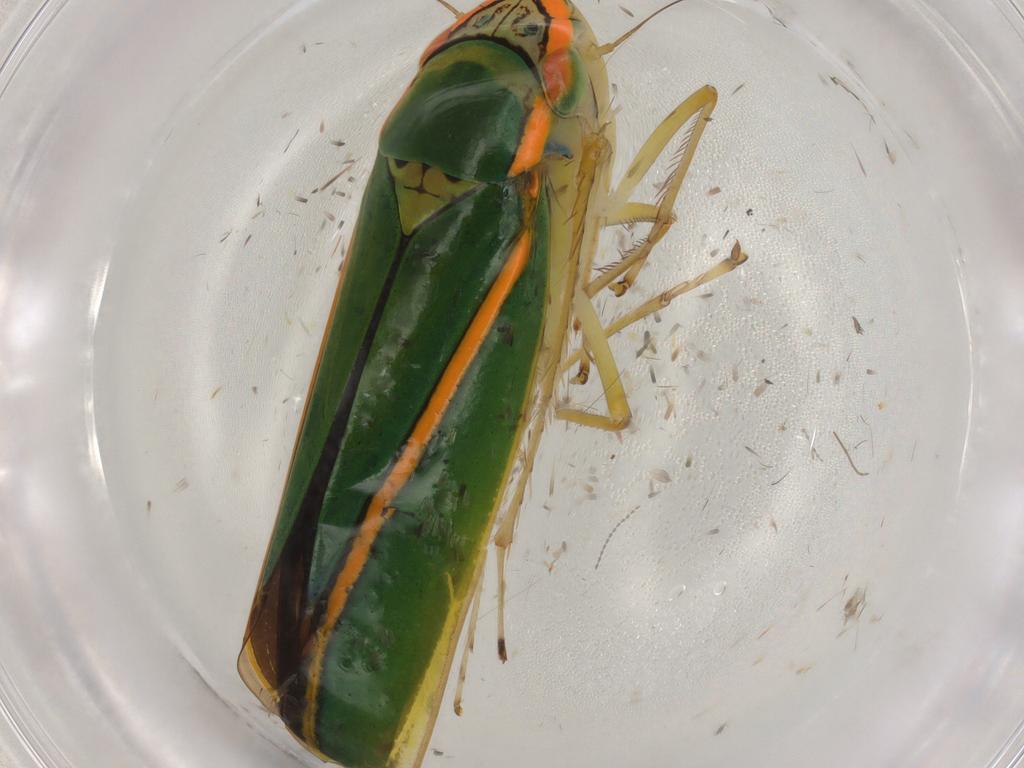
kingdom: Animalia
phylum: Arthropoda
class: Insecta
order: Hemiptera
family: Cicadellidae
